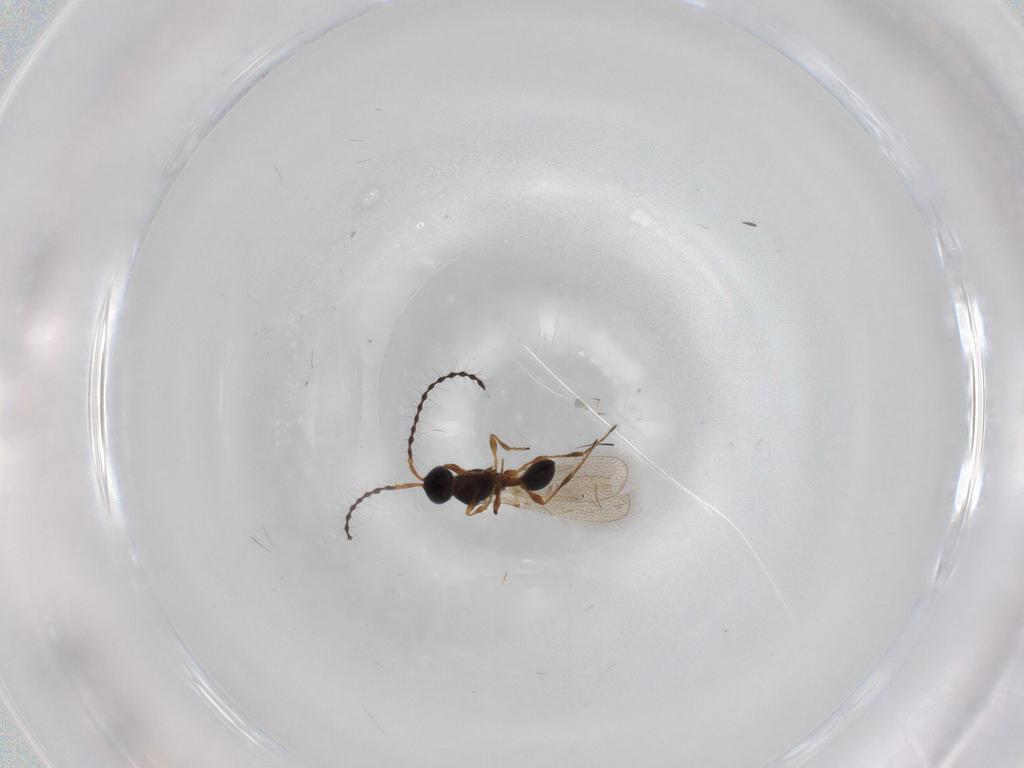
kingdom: Animalia
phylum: Arthropoda
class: Insecta
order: Hymenoptera
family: Diapriidae
